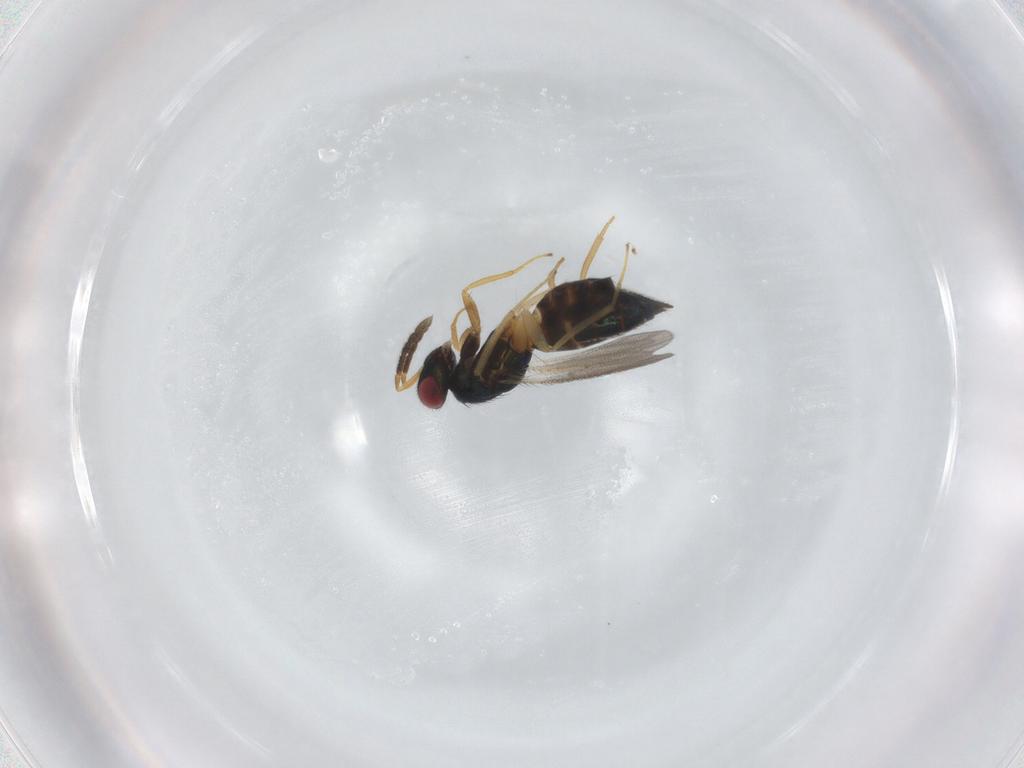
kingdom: Animalia
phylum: Arthropoda
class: Insecta
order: Hymenoptera
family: Eulophidae
